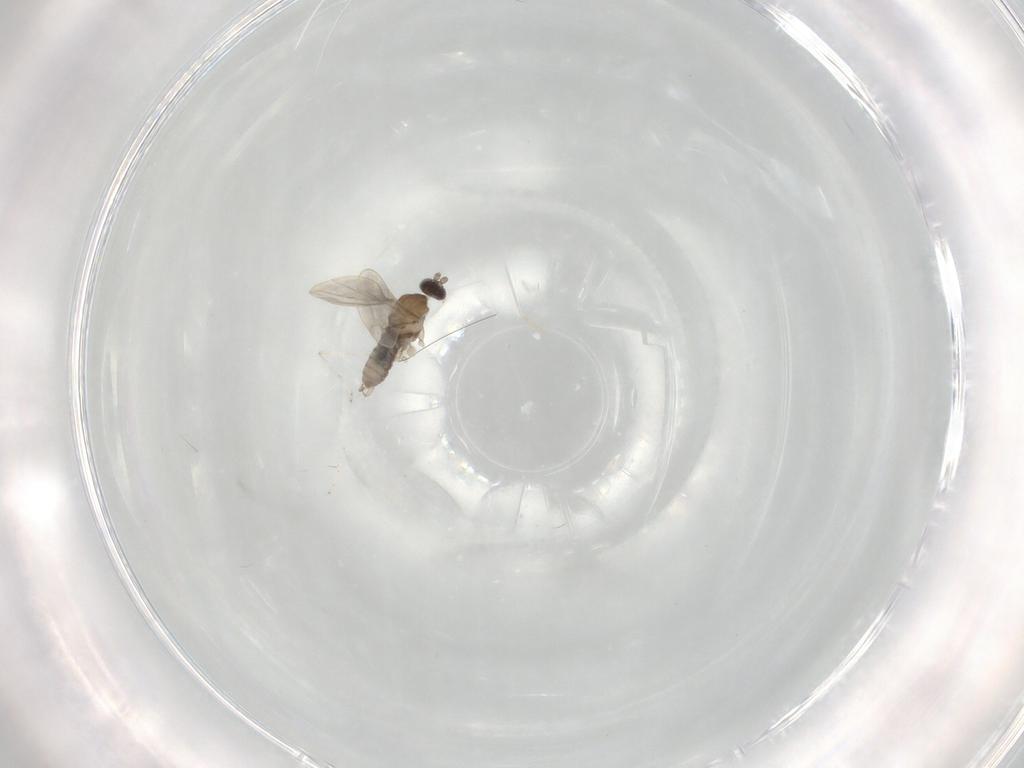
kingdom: Animalia
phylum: Arthropoda
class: Insecta
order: Diptera
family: Cecidomyiidae
